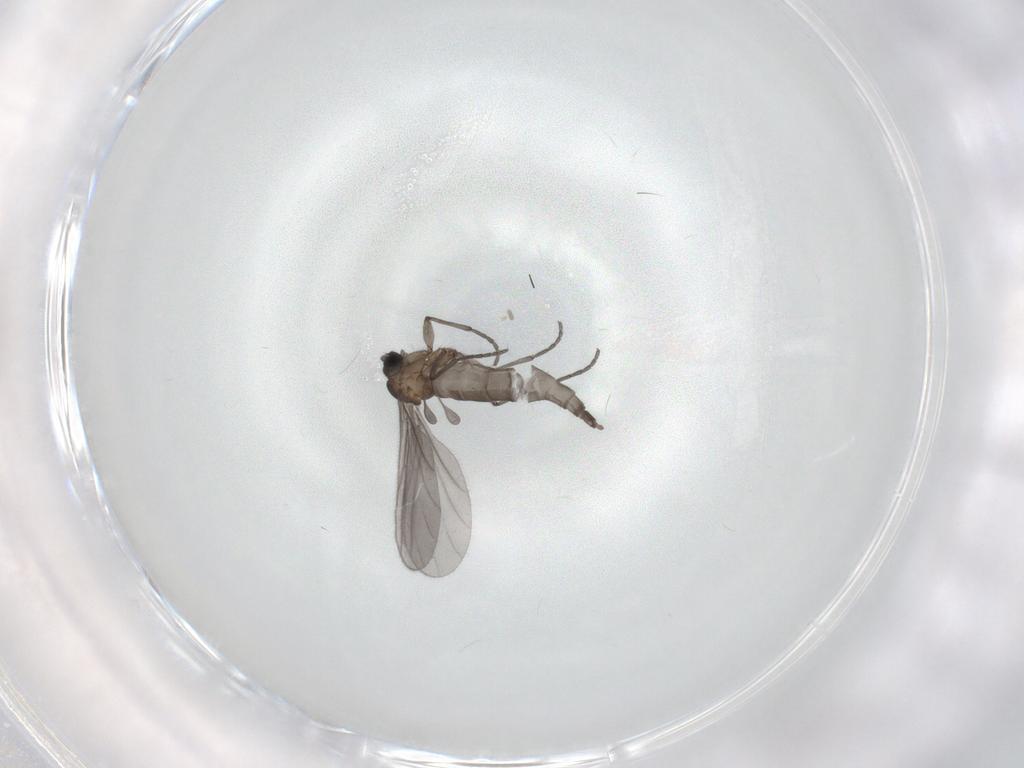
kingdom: Animalia
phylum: Arthropoda
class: Insecta
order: Diptera
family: Sciaridae
